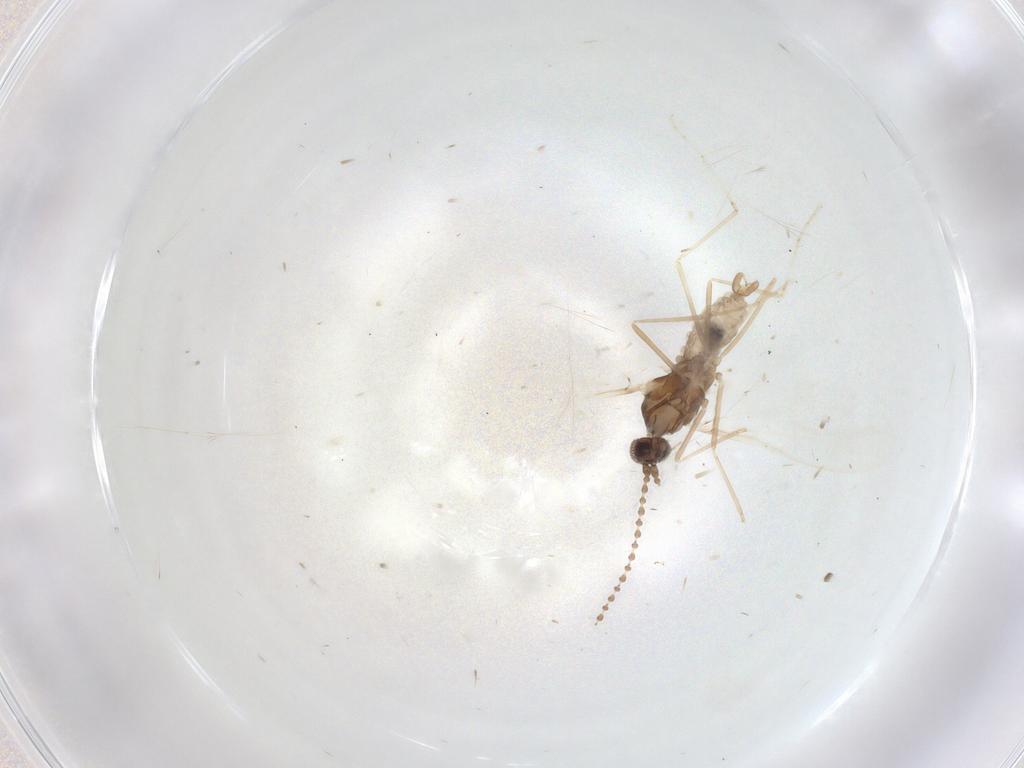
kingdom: Animalia
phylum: Arthropoda
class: Insecta
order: Diptera
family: Cecidomyiidae
